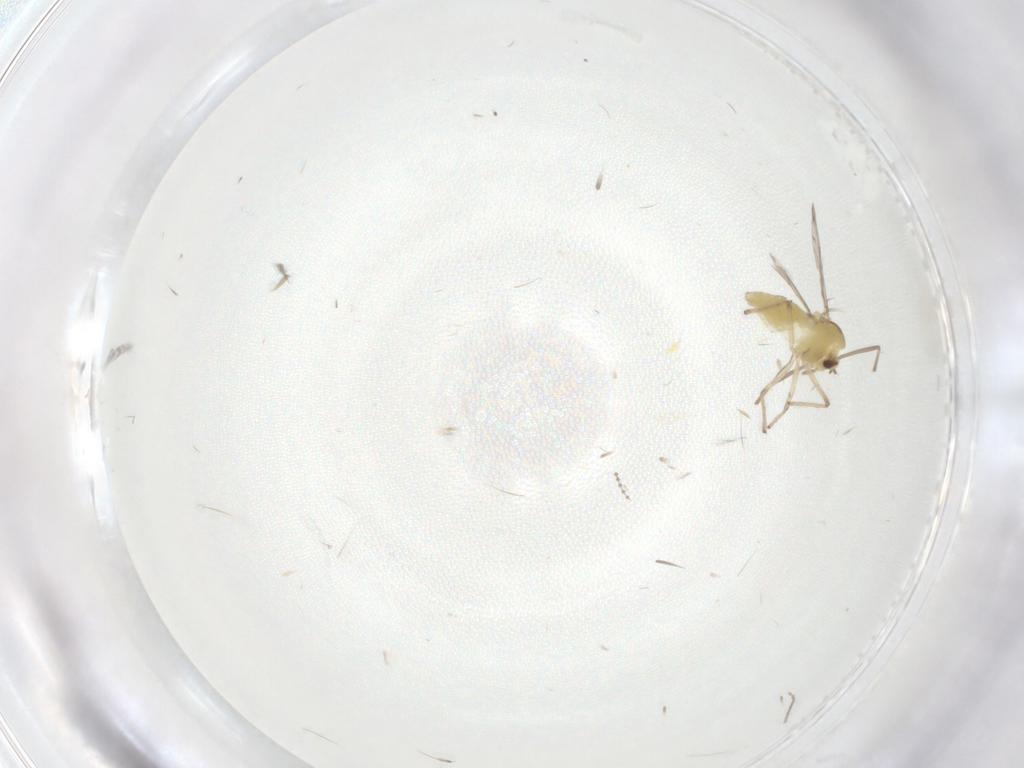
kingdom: Animalia
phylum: Arthropoda
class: Insecta
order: Diptera
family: Chironomidae
